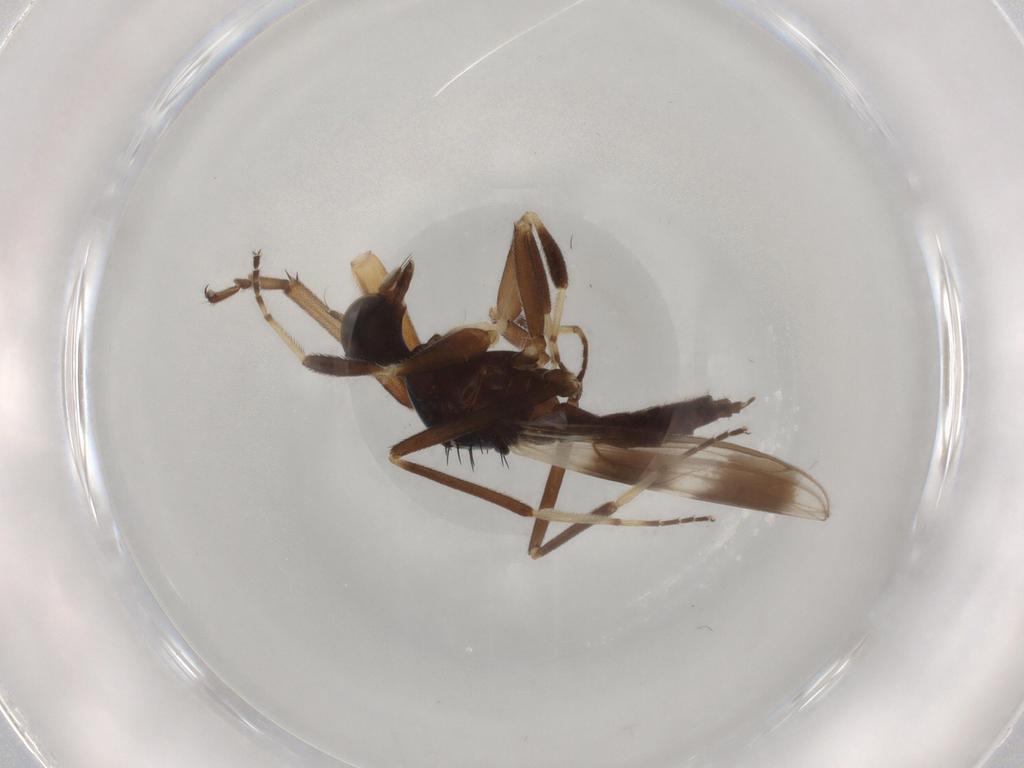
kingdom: Animalia
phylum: Arthropoda
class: Insecta
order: Diptera
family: Hybotidae
